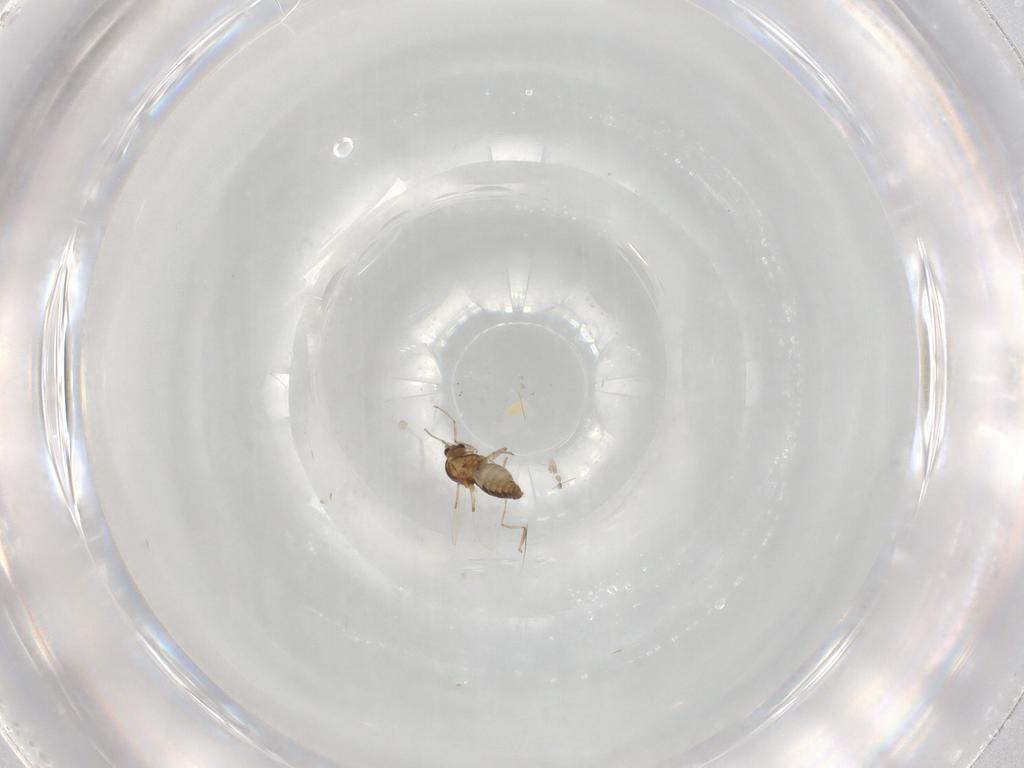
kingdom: Animalia
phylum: Arthropoda
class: Insecta
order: Diptera
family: Ceratopogonidae
